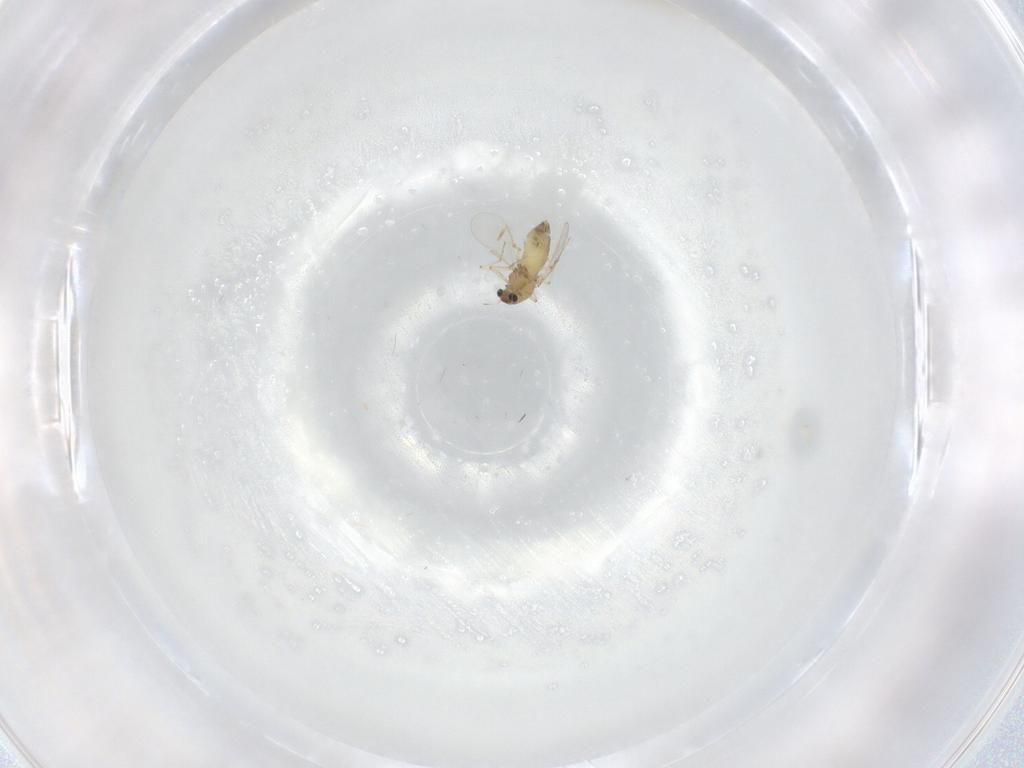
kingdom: Animalia
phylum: Arthropoda
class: Insecta
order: Diptera
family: Chironomidae
